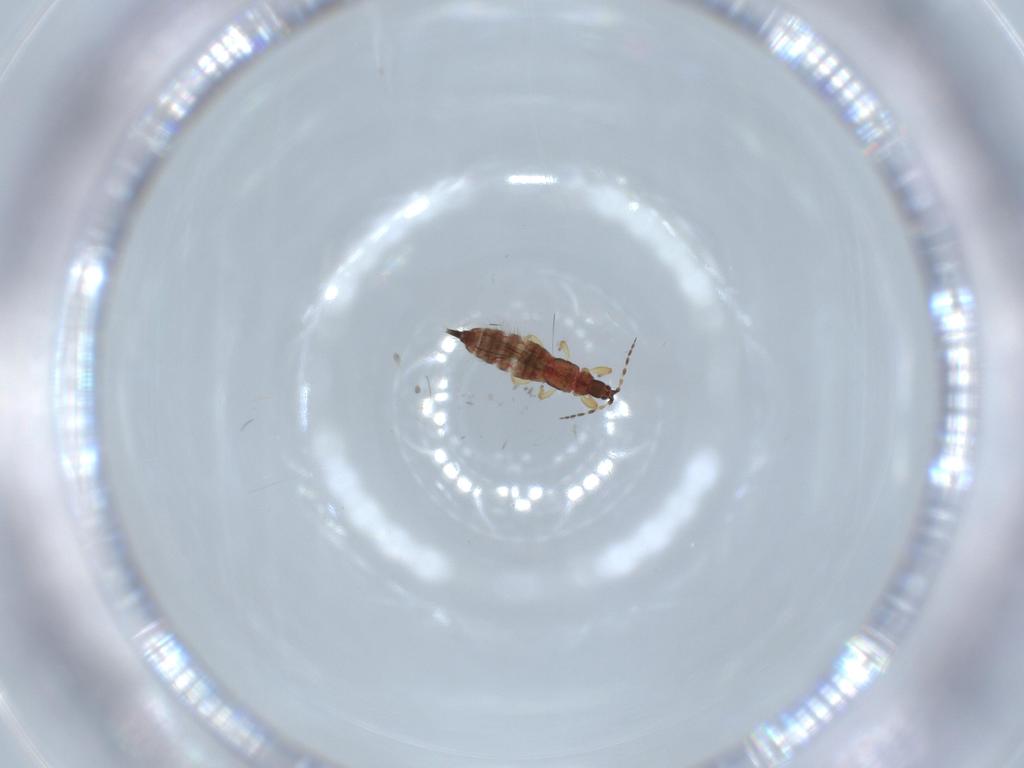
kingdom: Animalia
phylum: Arthropoda
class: Insecta
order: Thysanoptera
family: Phlaeothripidae
